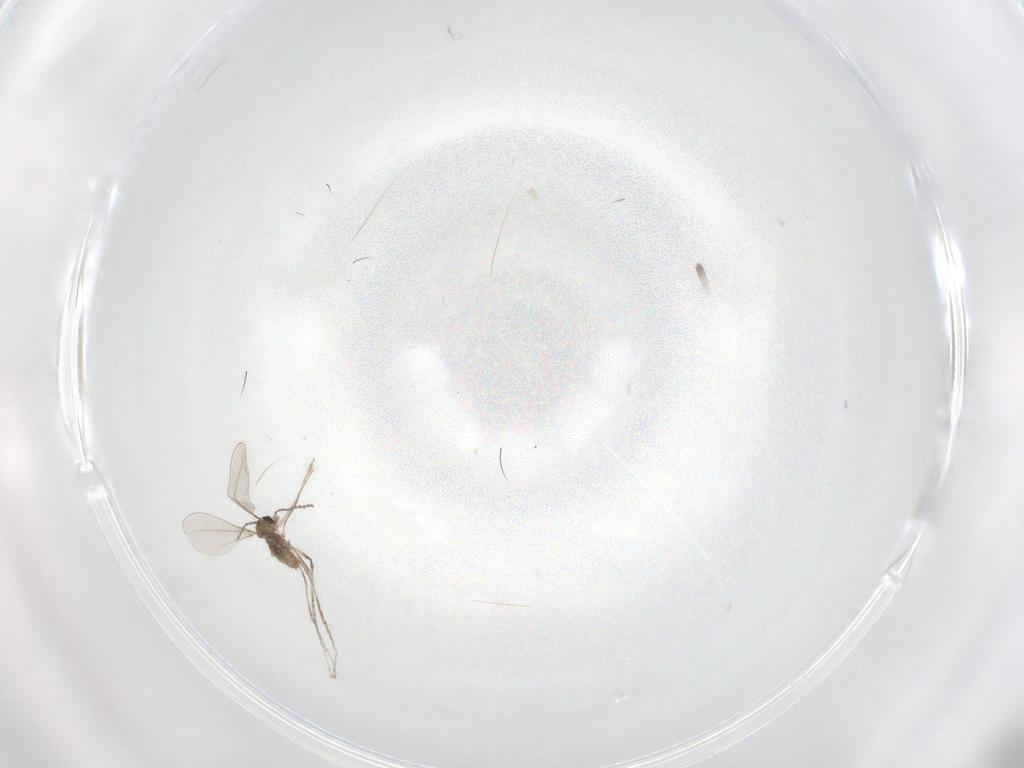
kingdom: Animalia
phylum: Arthropoda
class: Insecta
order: Diptera
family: Cecidomyiidae
